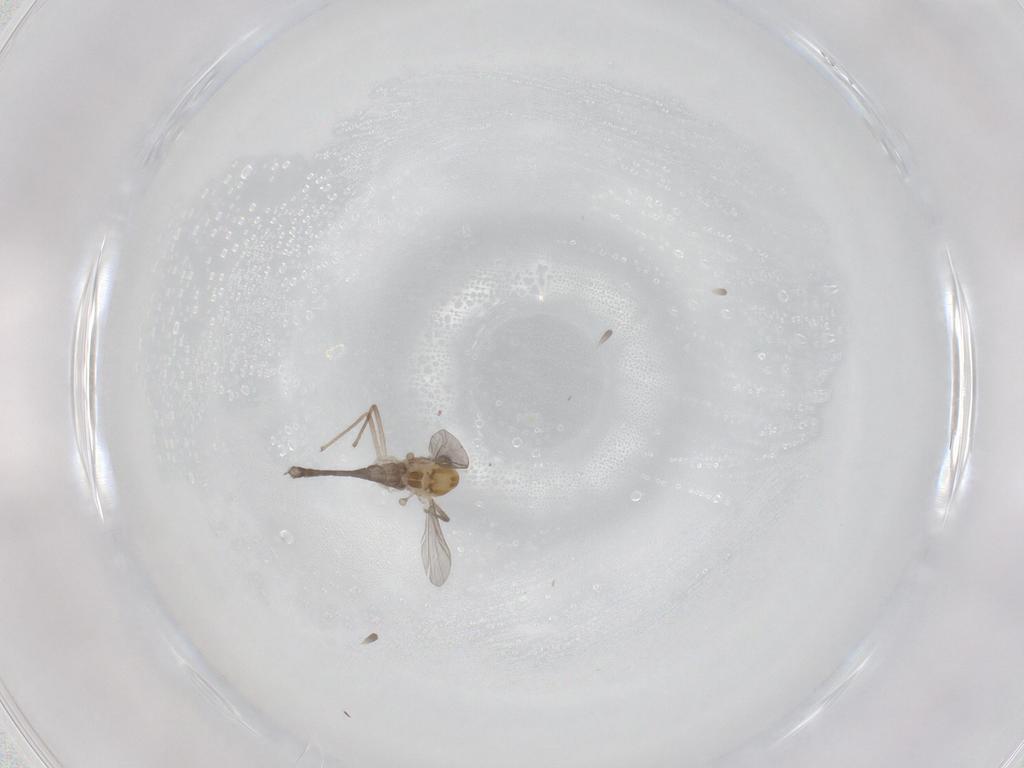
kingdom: Animalia
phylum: Arthropoda
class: Insecta
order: Diptera
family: Chironomidae
